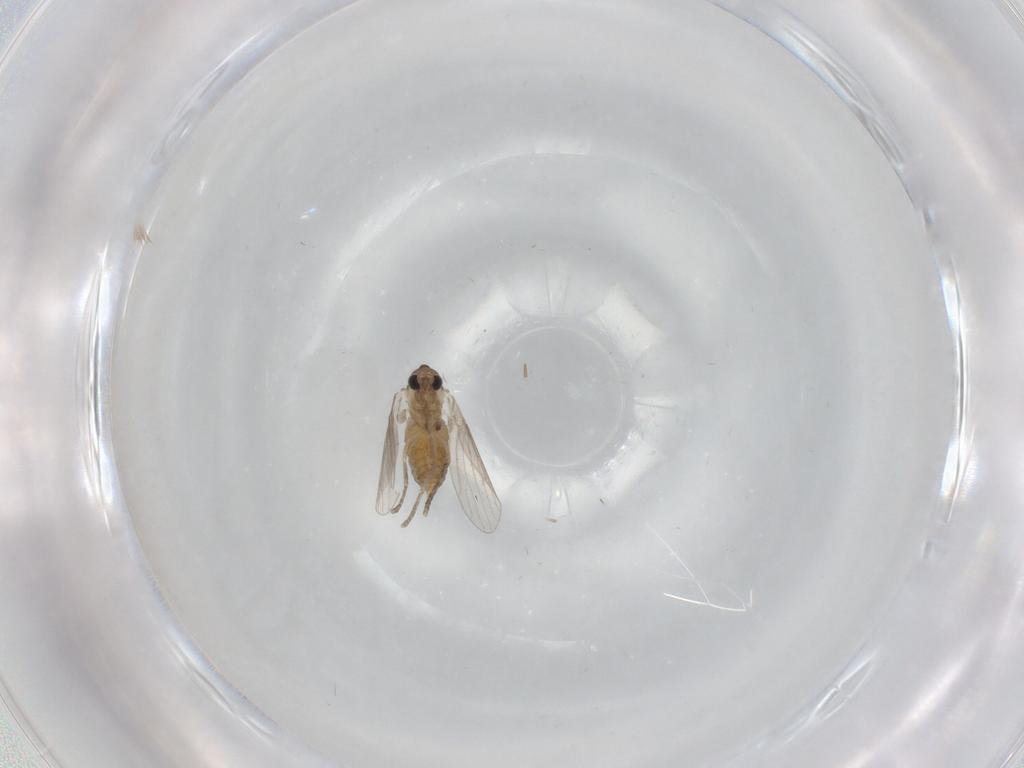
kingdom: Animalia
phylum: Arthropoda
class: Insecta
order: Diptera
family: Psychodidae
